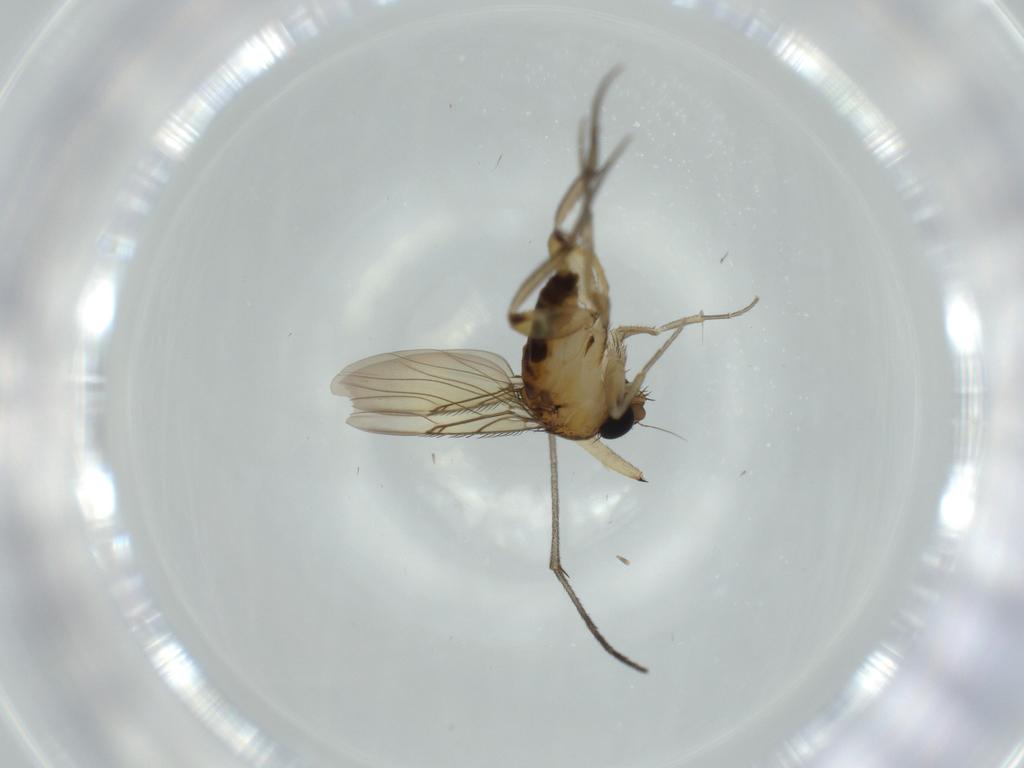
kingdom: Animalia
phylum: Arthropoda
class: Insecta
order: Diptera
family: Phoridae
